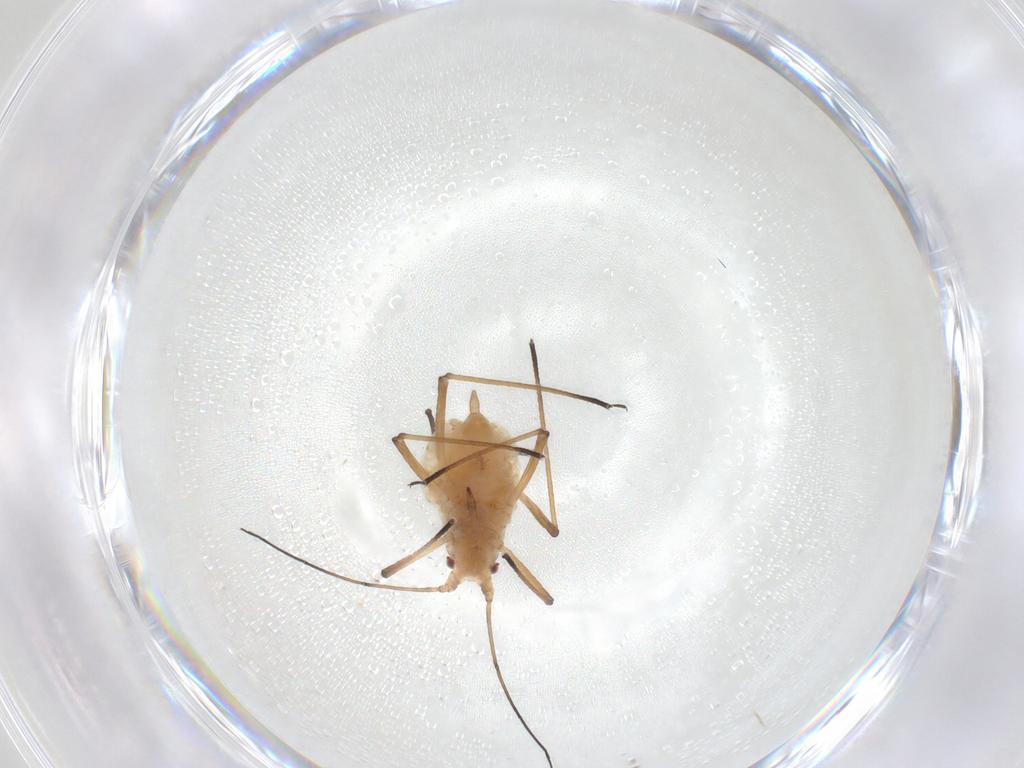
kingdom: Animalia
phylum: Arthropoda
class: Insecta
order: Hemiptera
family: Aphididae
